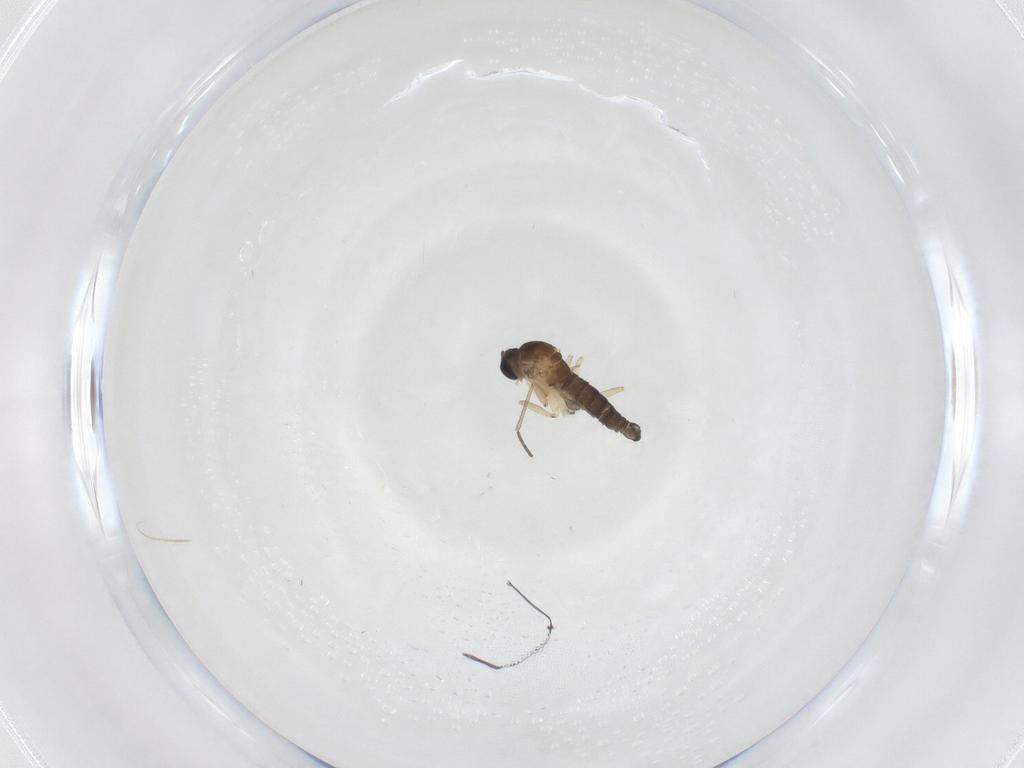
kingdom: Animalia
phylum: Arthropoda
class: Insecta
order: Diptera
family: Sciaridae
